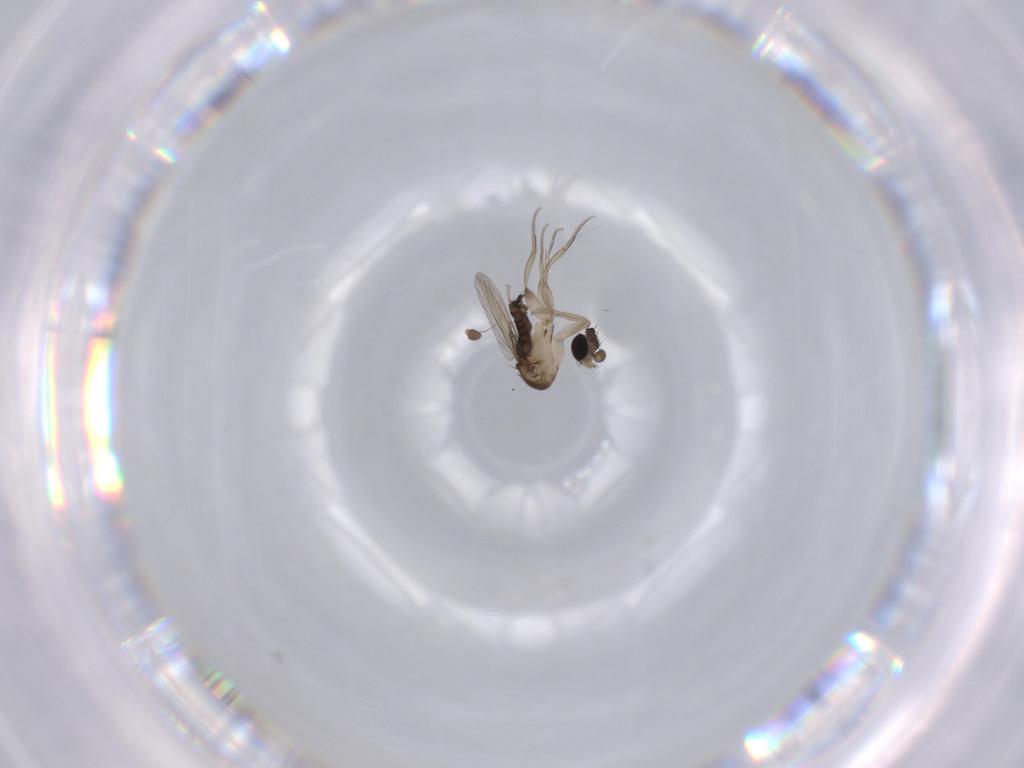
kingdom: Animalia
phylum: Arthropoda
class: Insecta
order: Diptera
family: Phoridae
